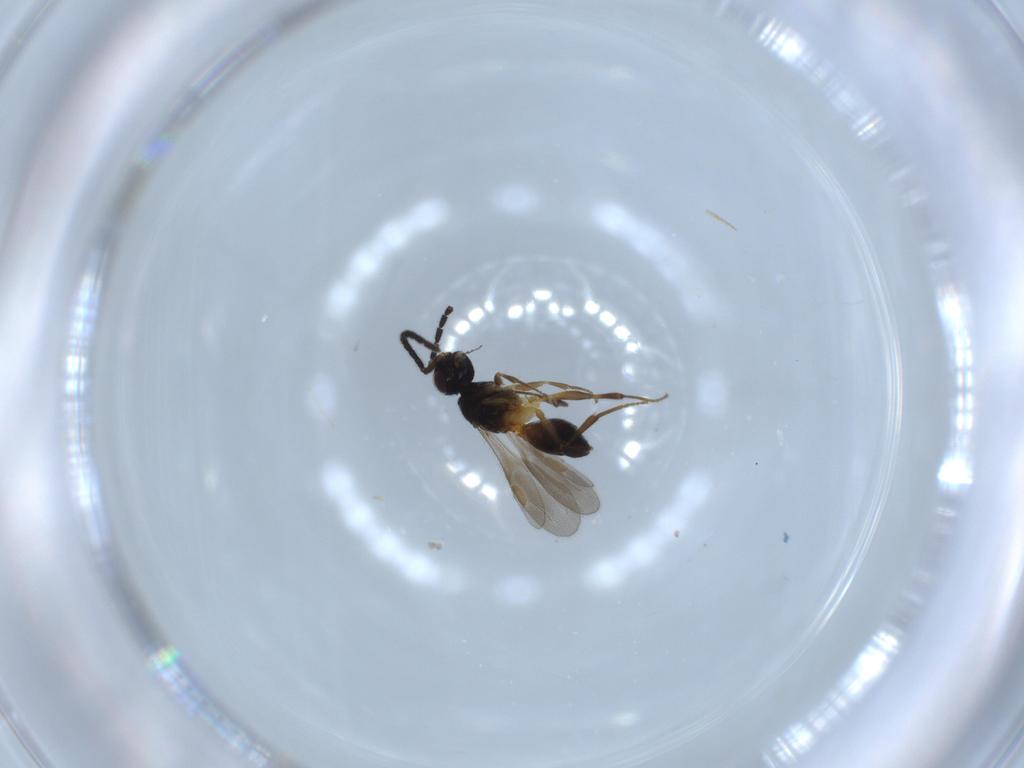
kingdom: Animalia
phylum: Arthropoda
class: Insecta
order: Hymenoptera
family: Megaspilidae
